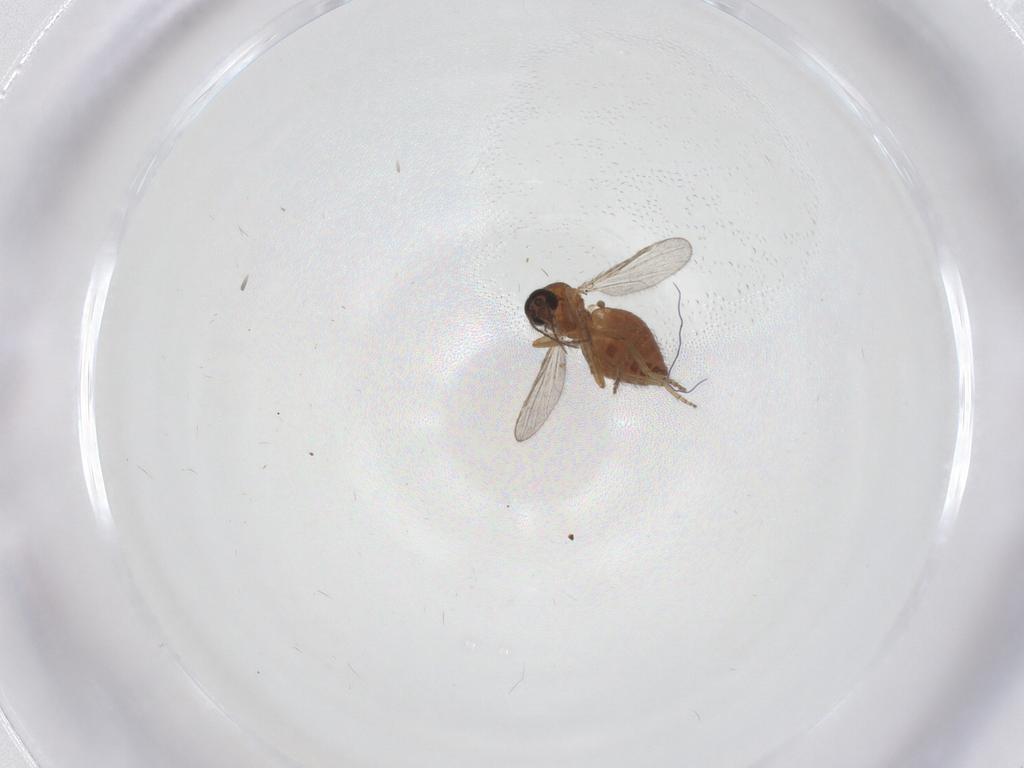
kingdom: Animalia
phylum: Arthropoda
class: Insecta
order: Diptera
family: Ceratopogonidae
